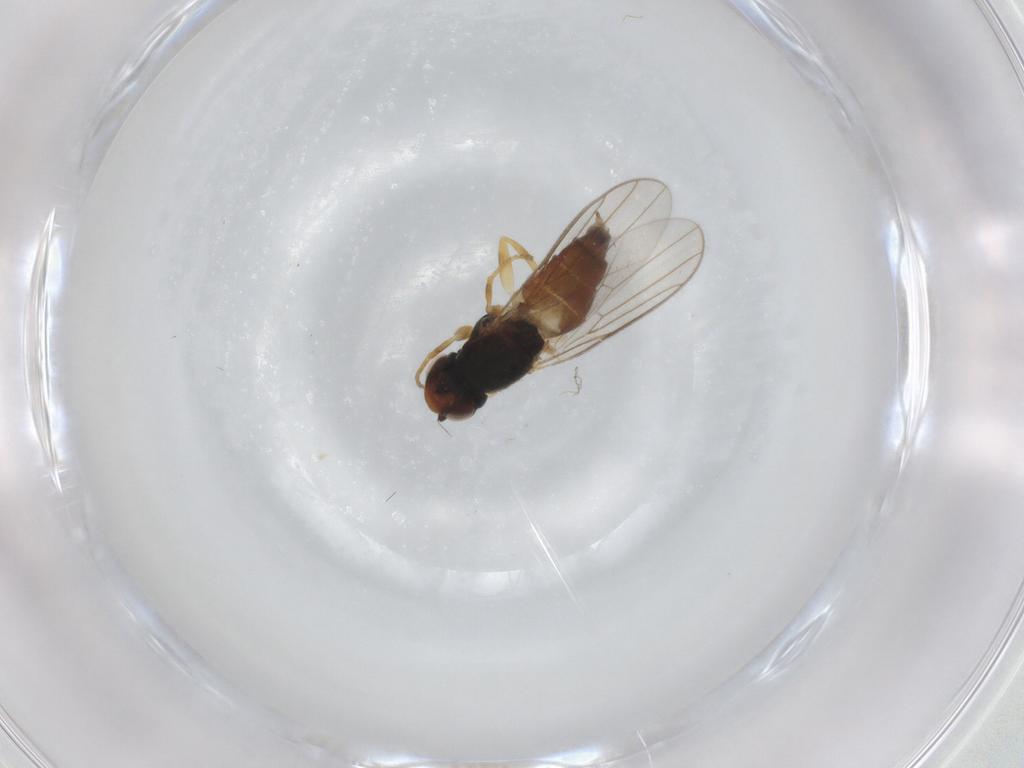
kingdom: Animalia
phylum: Arthropoda
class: Insecta
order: Diptera
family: Chloropidae
